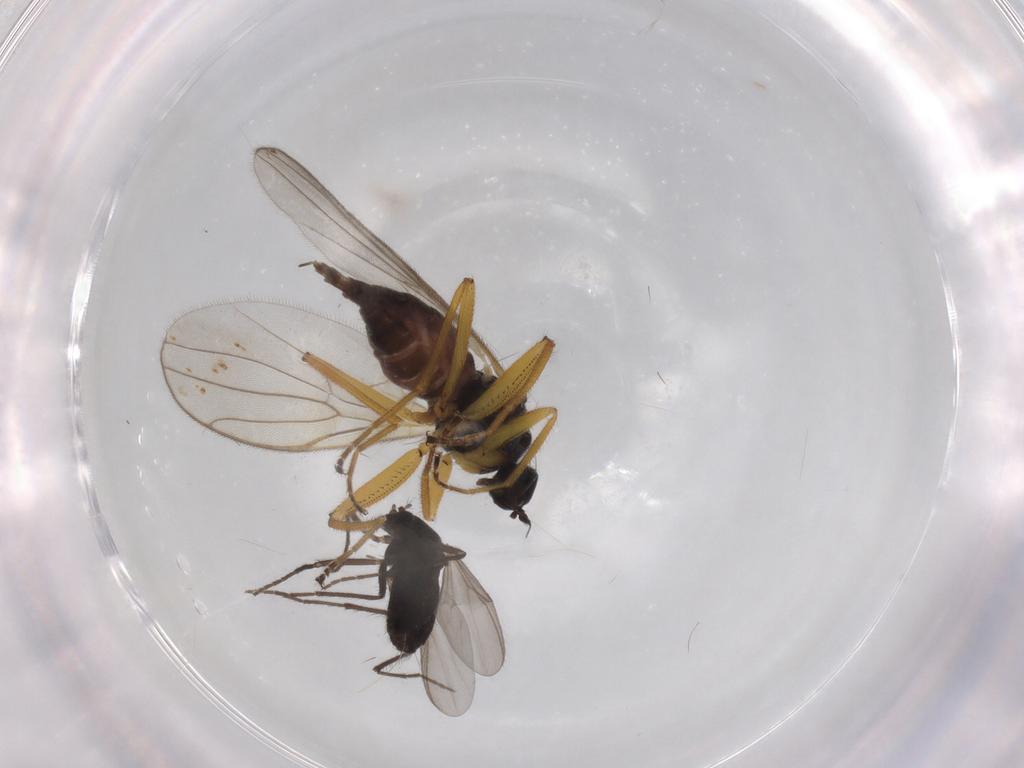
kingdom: Animalia
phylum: Arthropoda
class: Insecta
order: Diptera
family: Hybotidae
